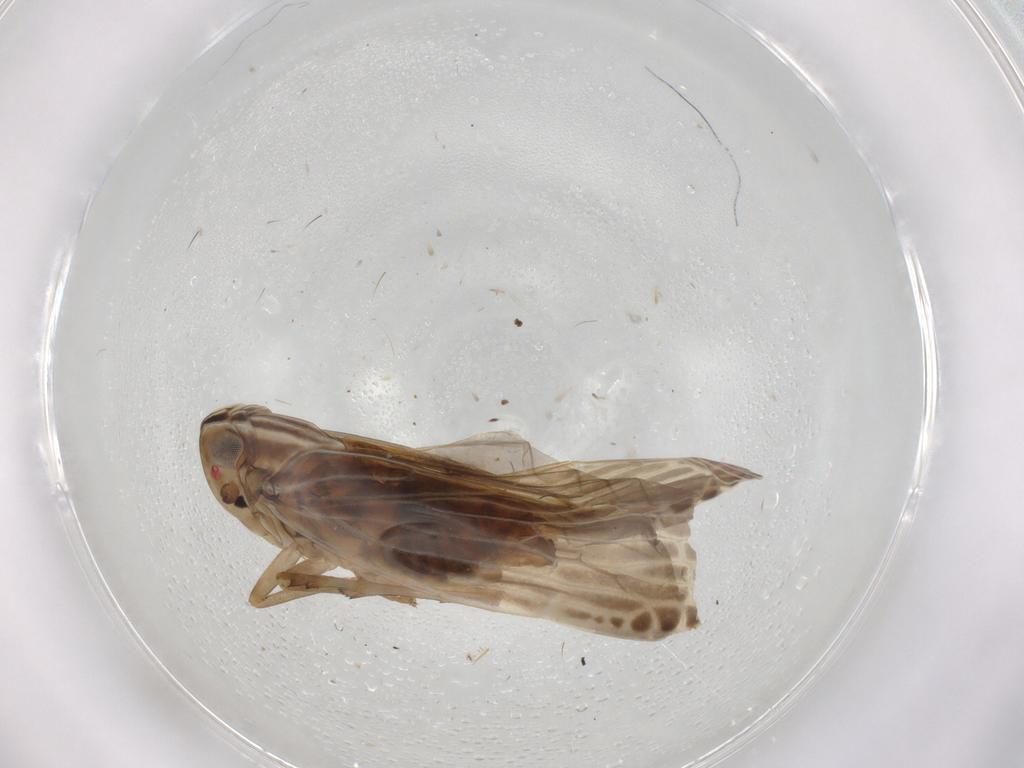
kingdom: Animalia
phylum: Arthropoda
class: Insecta
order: Hemiptera
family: Cicadellidae
